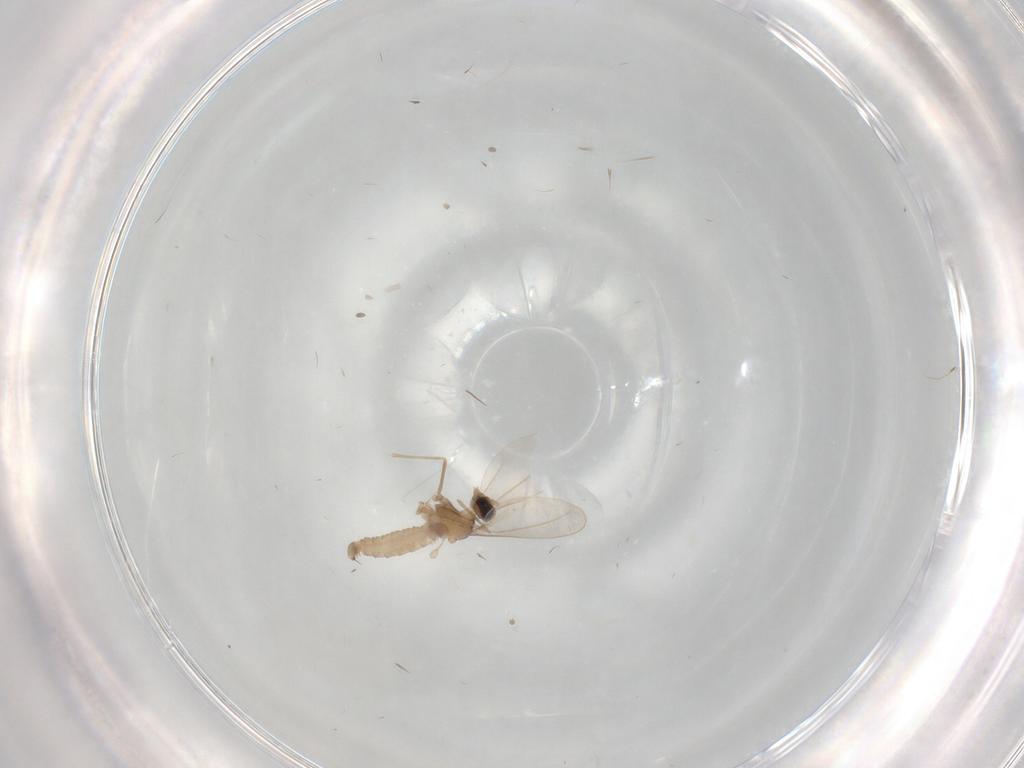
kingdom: Animalia
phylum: Arthropoda
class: Insecta
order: Diptera
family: Cecidomyiidae
